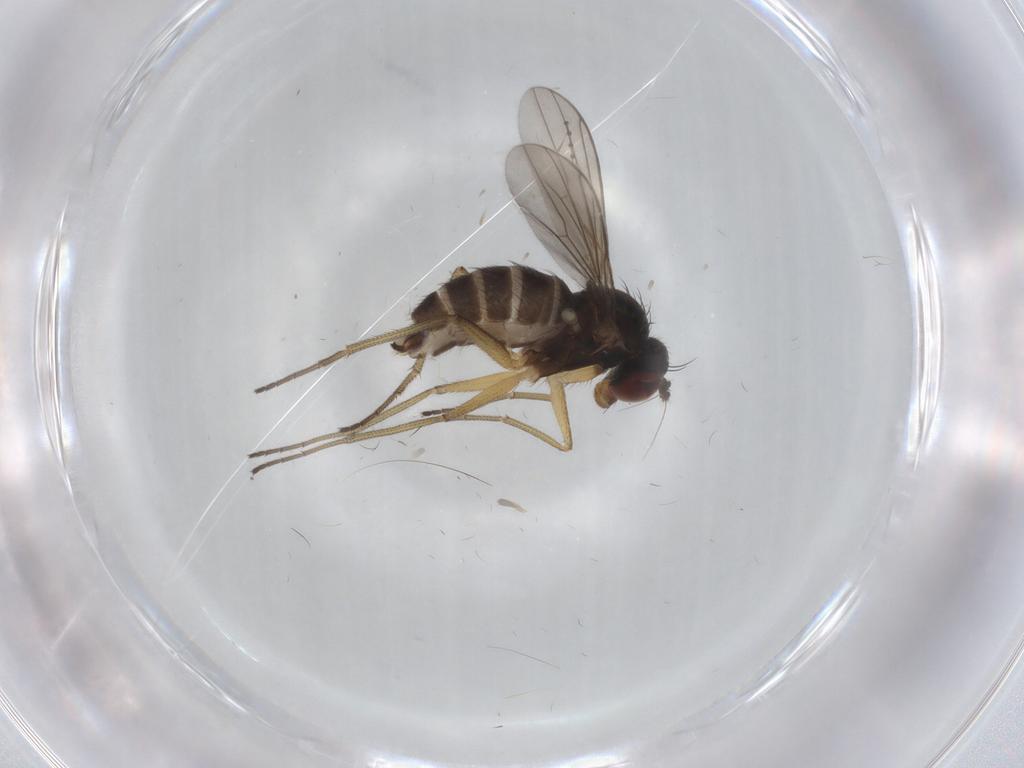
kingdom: Animalia
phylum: Arthropoda
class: Insecta
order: Diptera
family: Dolichopodidae
